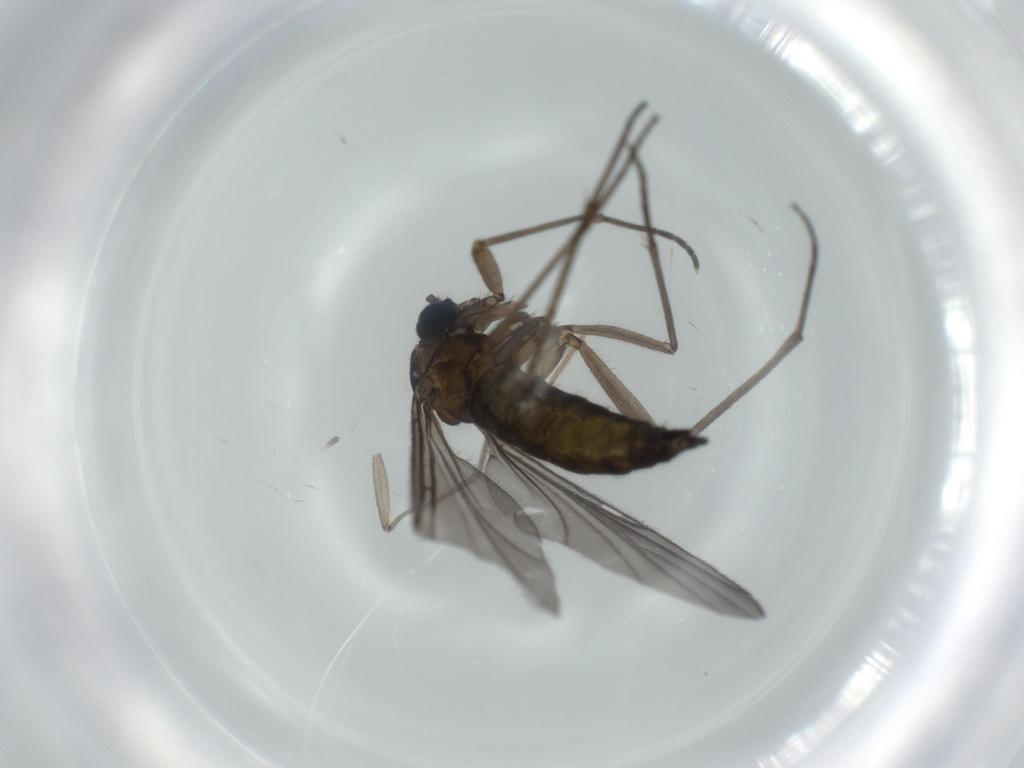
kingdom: Animalia
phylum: Arthropoda
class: Insecta
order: Diptera
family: Sciaridae
